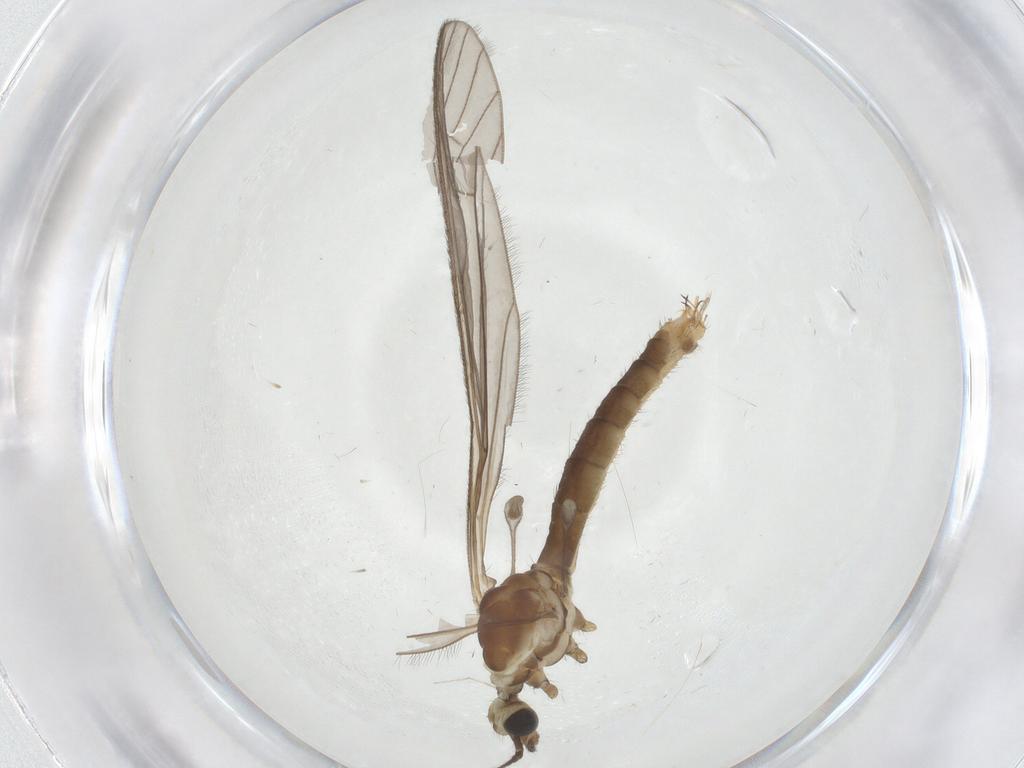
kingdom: Animalia
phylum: Arthropoda
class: Insecta
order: Diptera
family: Limoniidae
